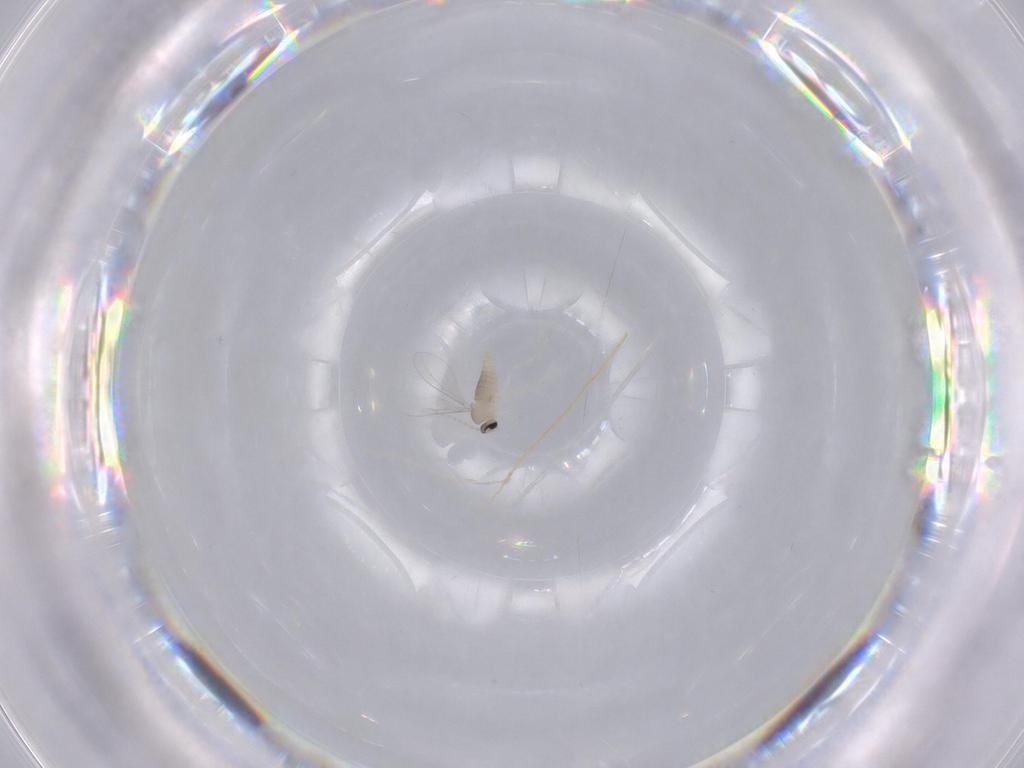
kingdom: Animalia
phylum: Arthropoda
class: Insecta
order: Diptera
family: Cecidomyiidae
